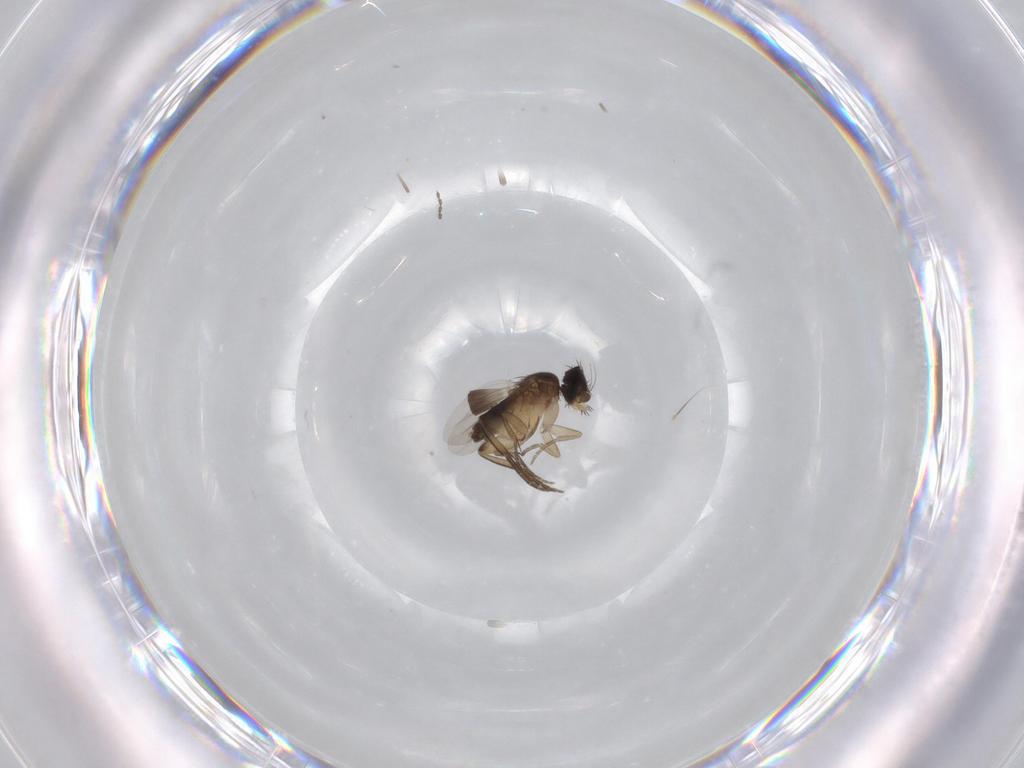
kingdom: Animalia
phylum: Arthropoda
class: Insecta
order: Diptera
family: Phoridae
